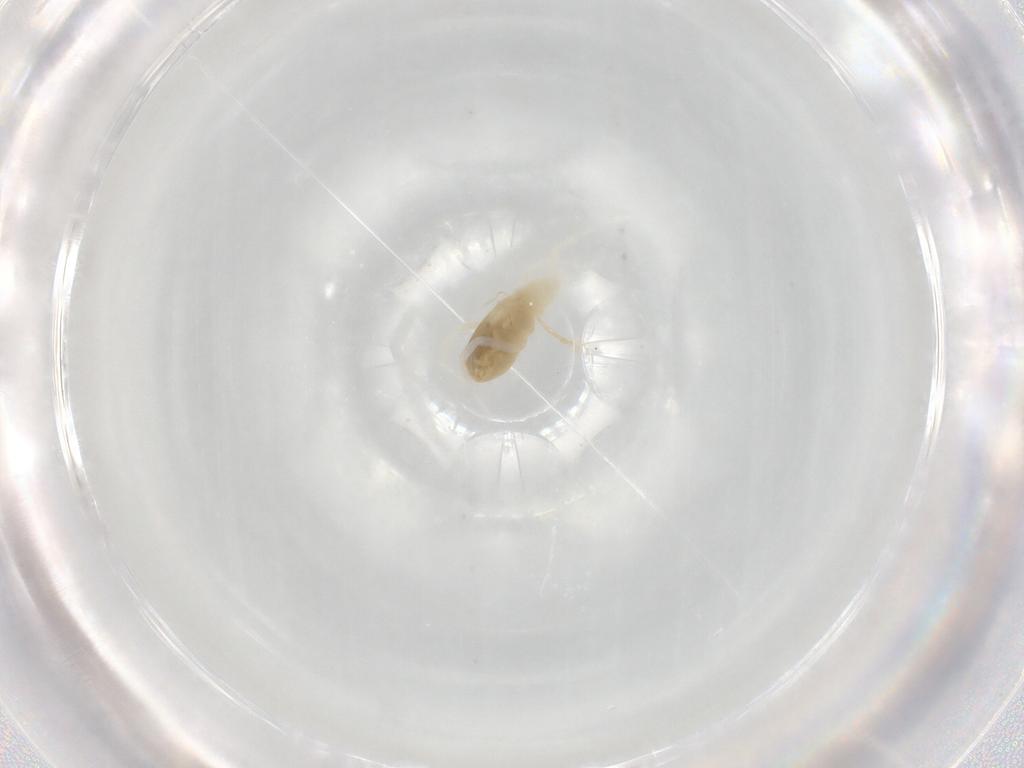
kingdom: Animalia
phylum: Arthropoda
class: Arachnida
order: Trombidiformes
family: Rhagidiidae
